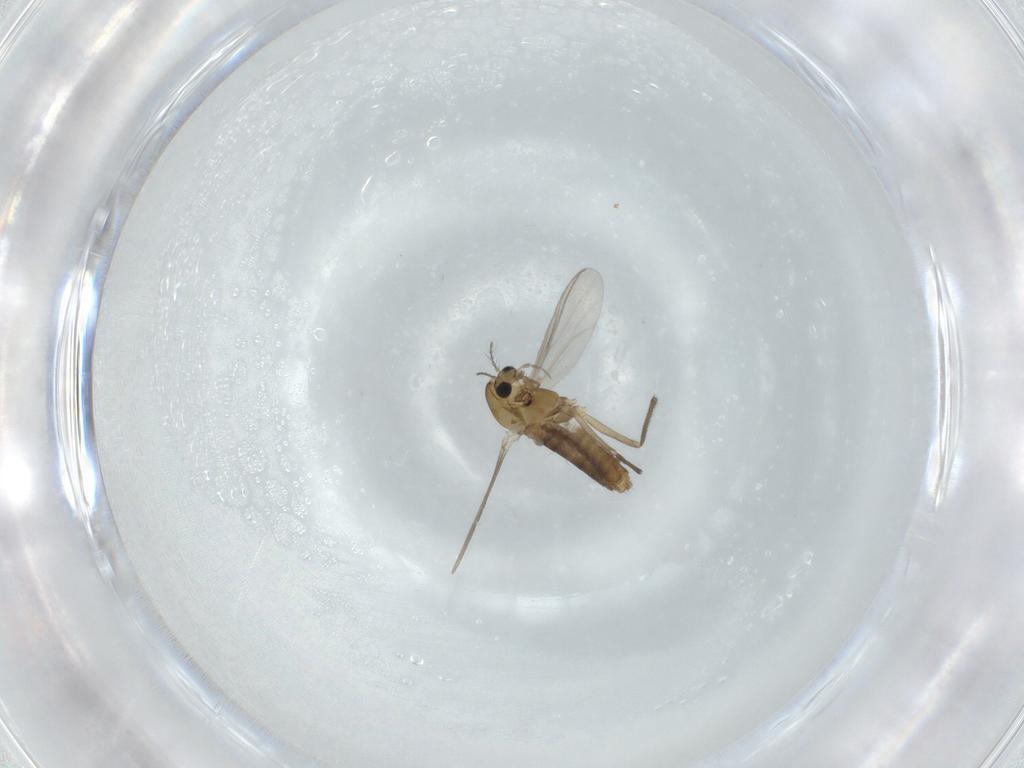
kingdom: Animalia
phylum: Arthropoda
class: Insecta
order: Diptera
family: Chironomidae
